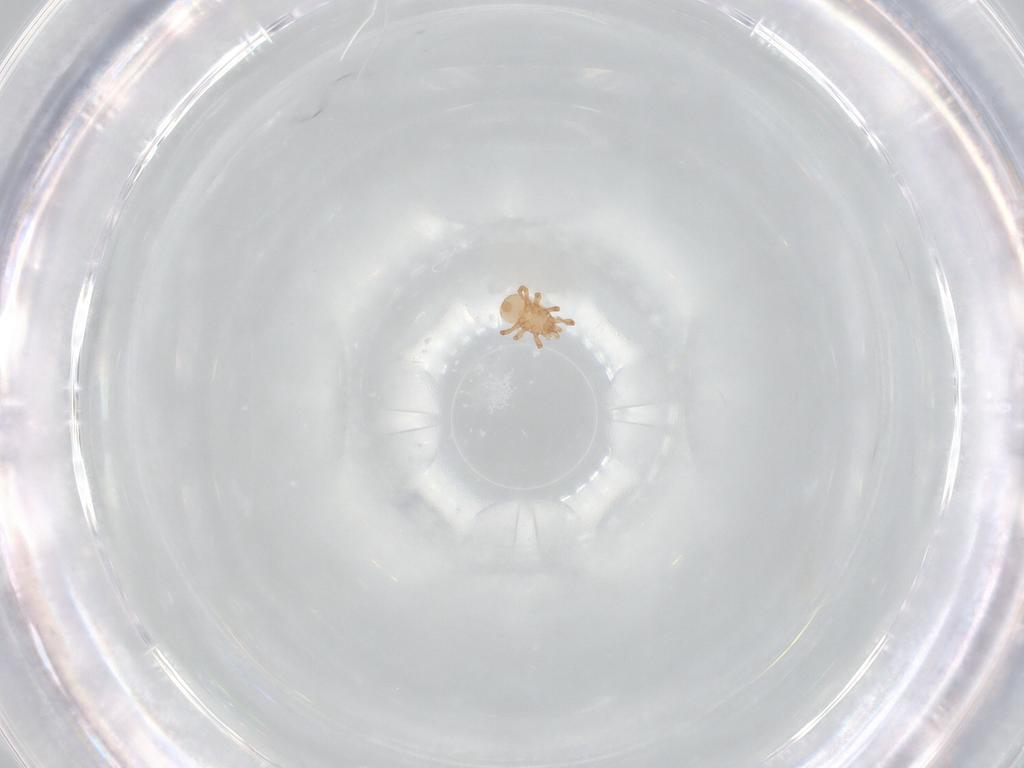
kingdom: Animalia
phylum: Arthropoda
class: Arachnida
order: Mesostigmata
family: Ascidae
